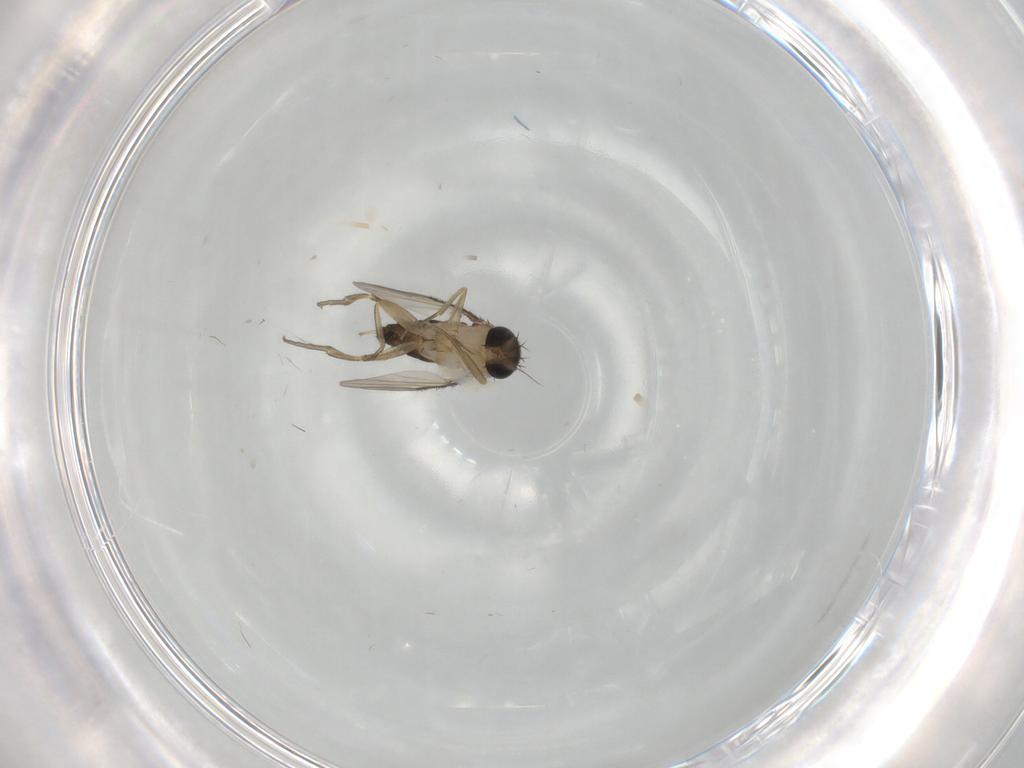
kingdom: Animalia
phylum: Arthropoda
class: Insecta
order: Diptera
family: Phoridae
